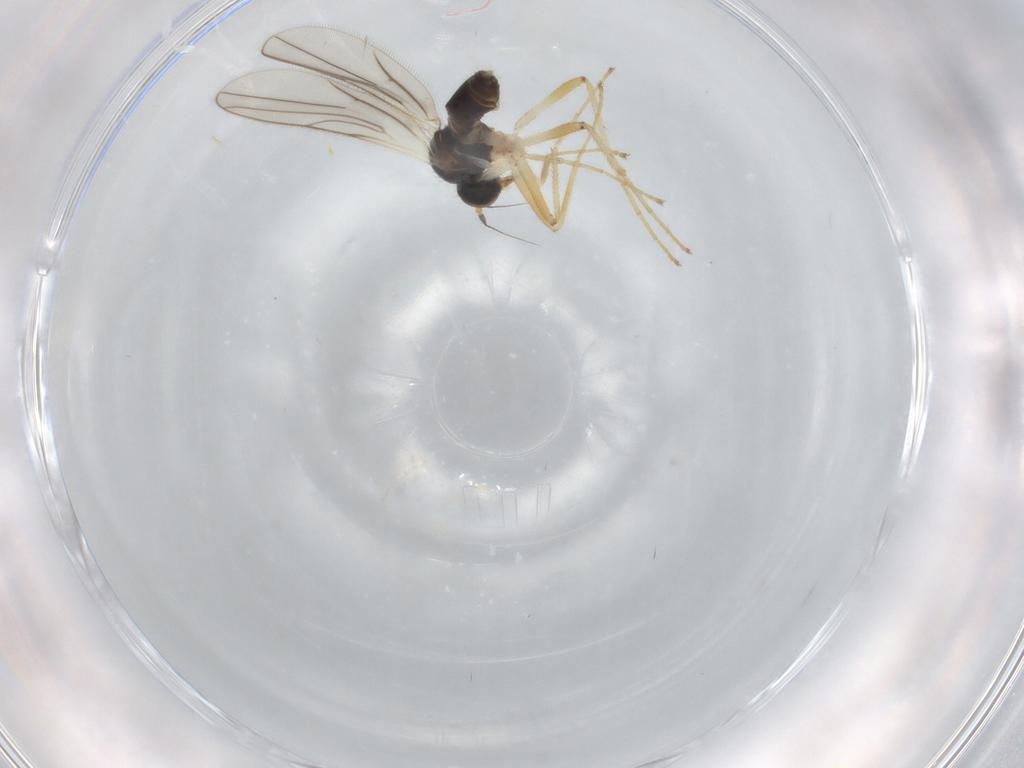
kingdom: Animalia
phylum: Arthropoda
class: Insecta
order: Diptera
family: Hybotidae
